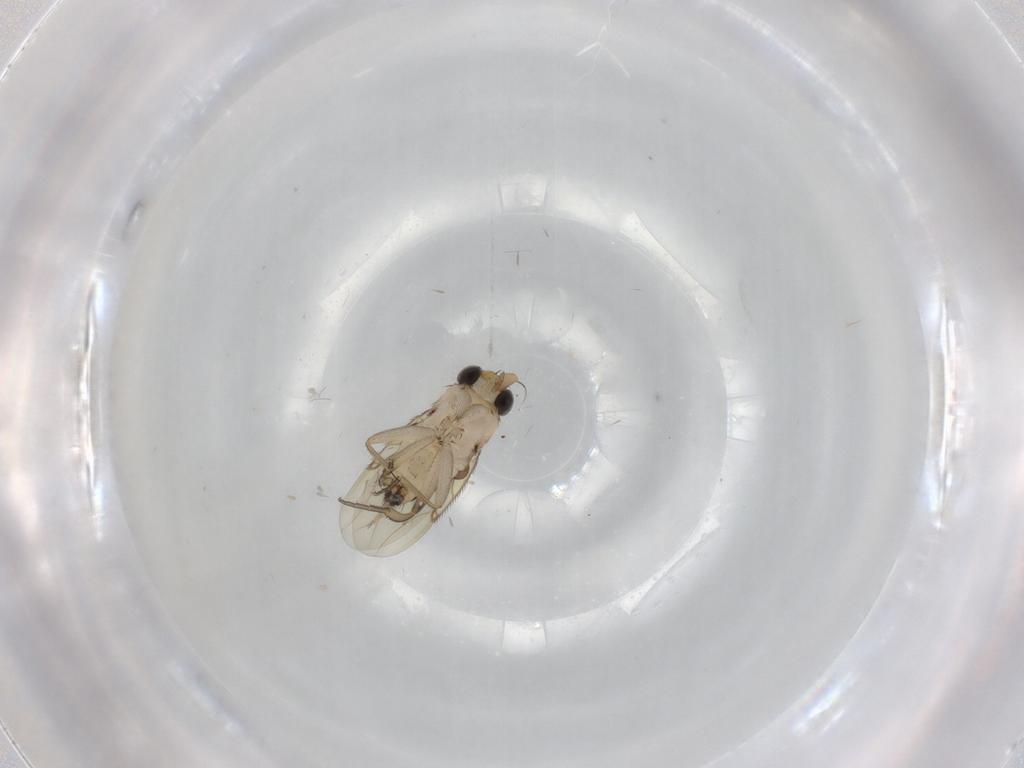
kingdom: Animalia
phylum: Arthropoda
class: Insecta
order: Diptera
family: Phoridae
